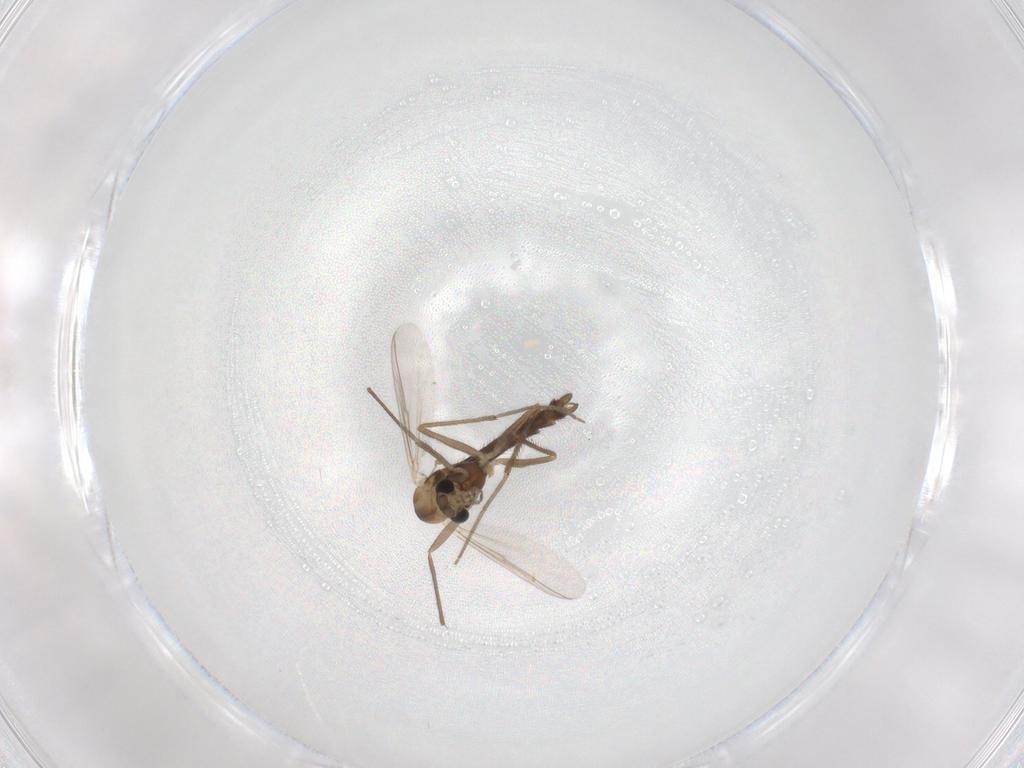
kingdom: Animalia
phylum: Arthropoda
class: Insecta
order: Diptera
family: Chironomidae
